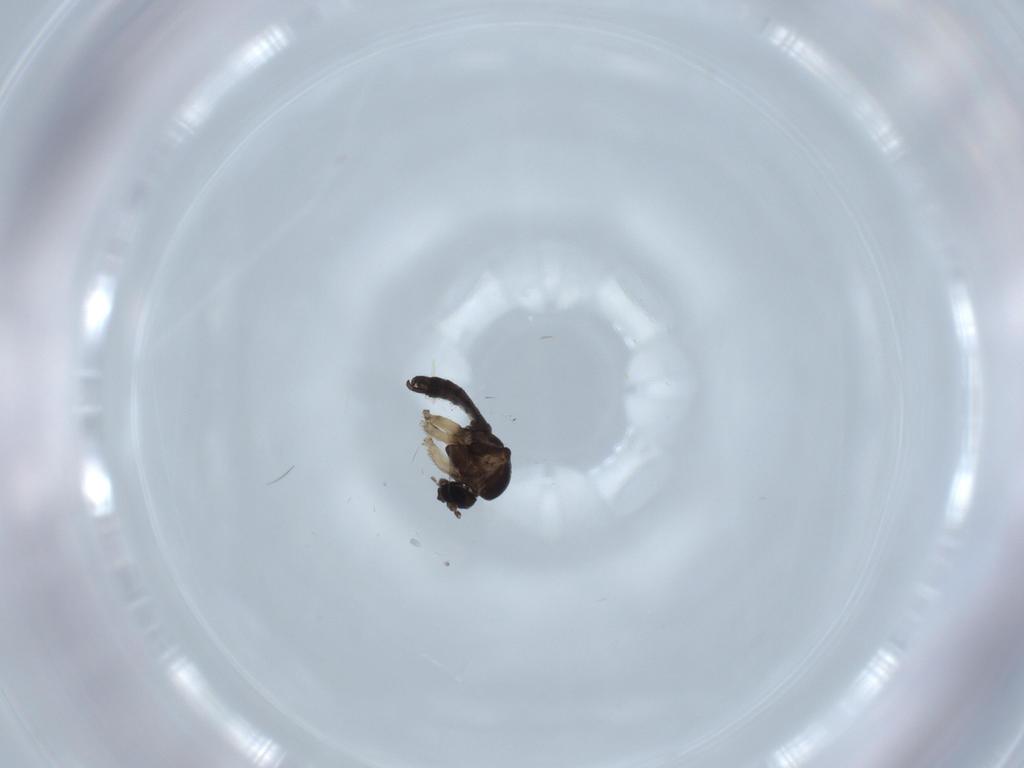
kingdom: Animalia
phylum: Arthropoda
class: Insecta
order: Diptera
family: Sciaridae
